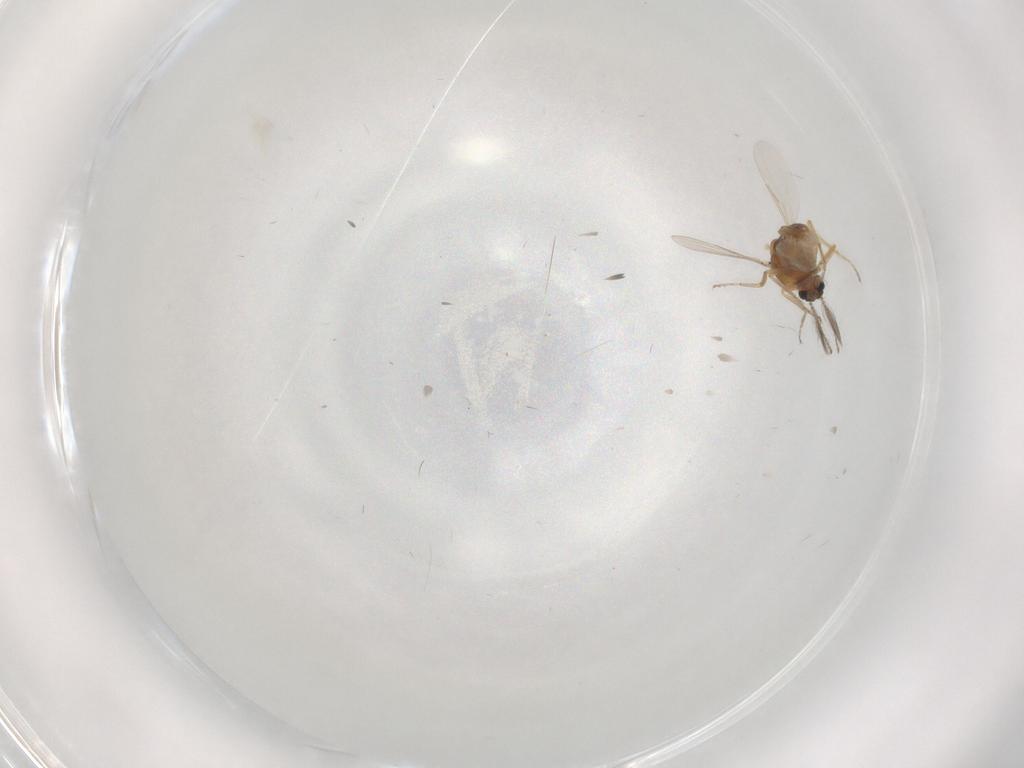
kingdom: Animalia
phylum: Arthropoda
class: Insecta
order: Diptera
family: Ceratopogonidae
